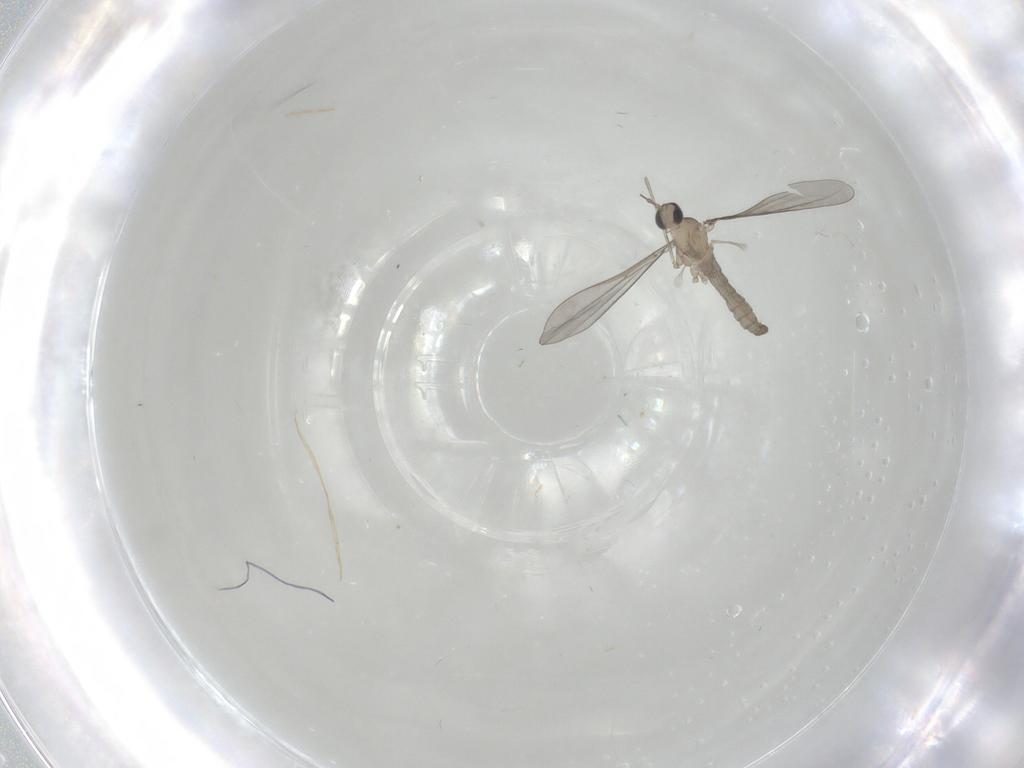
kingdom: Animalia
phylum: Arthropoda
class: Insecta
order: Diptera
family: Cecidomyiidae
